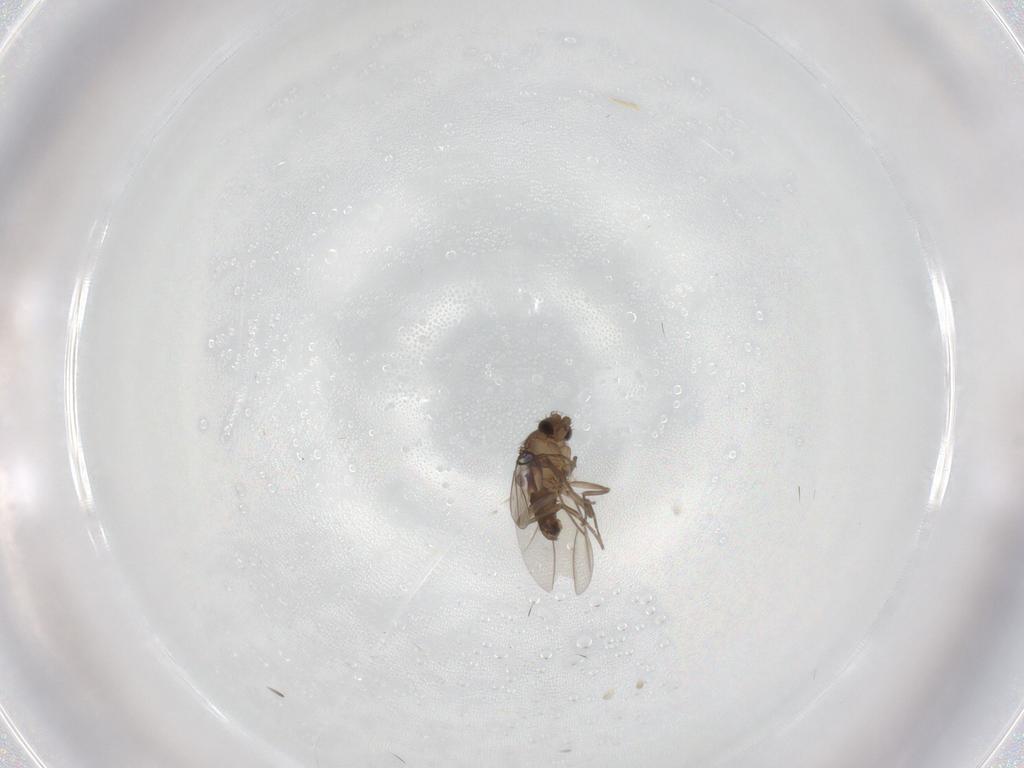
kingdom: Animalia
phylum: Arthropoda
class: Insecta
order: Diptera
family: Phoridae
